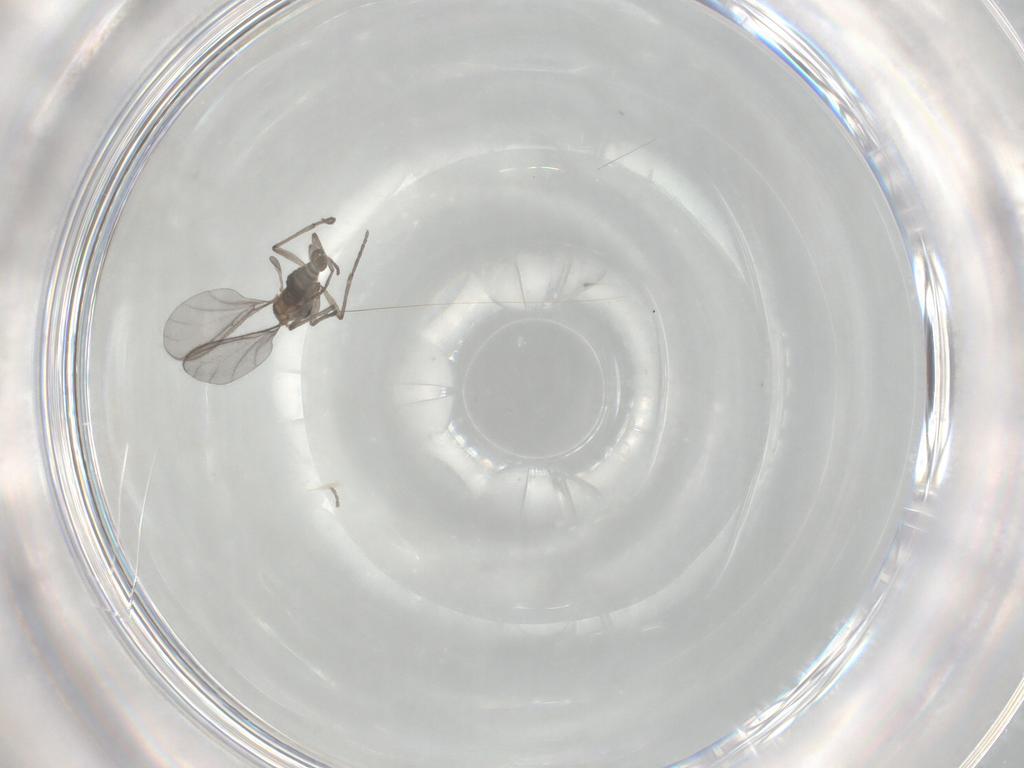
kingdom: Animalia
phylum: Arthropoda
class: Insecta
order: Diptera
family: Sciaridae
